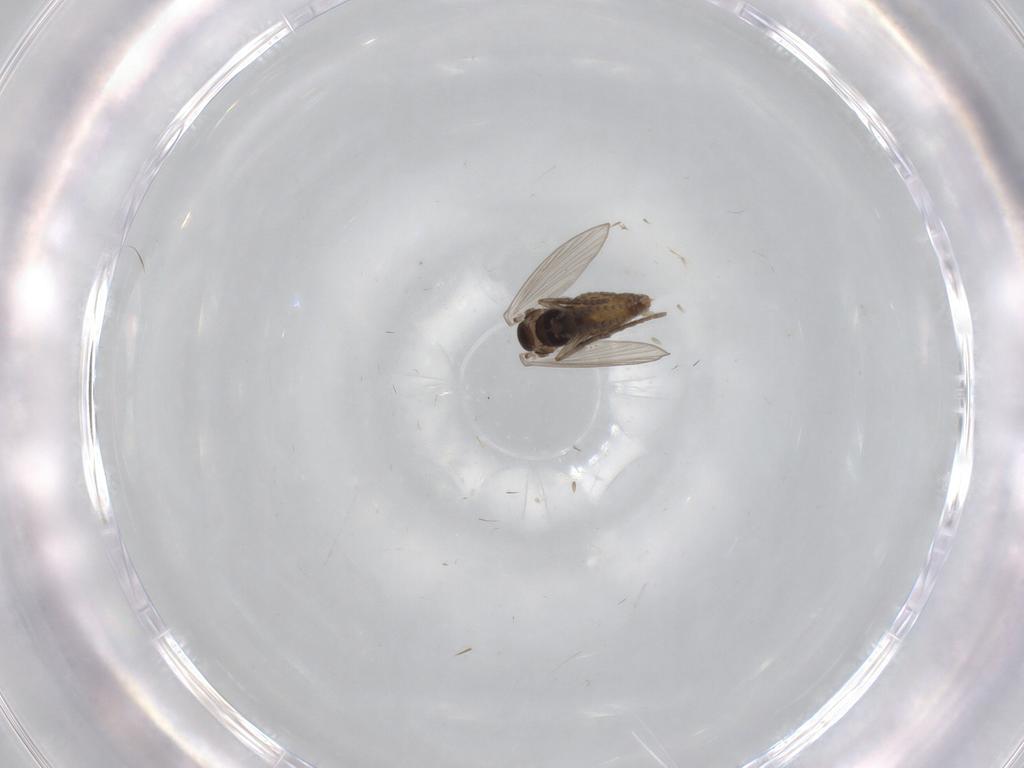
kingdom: Animalia
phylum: Arthropoda
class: Insecta
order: Diptera
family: Psychodidae
